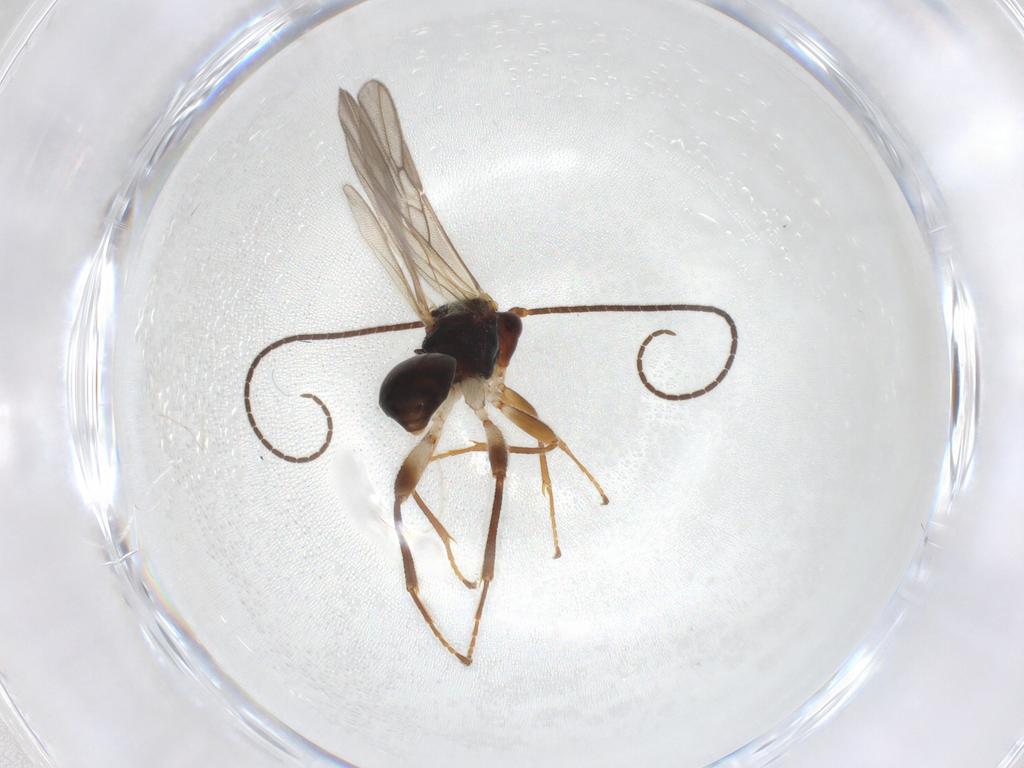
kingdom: Animalia
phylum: Arthropoda
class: Insecta
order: Hymenoptera
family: Braconidae
